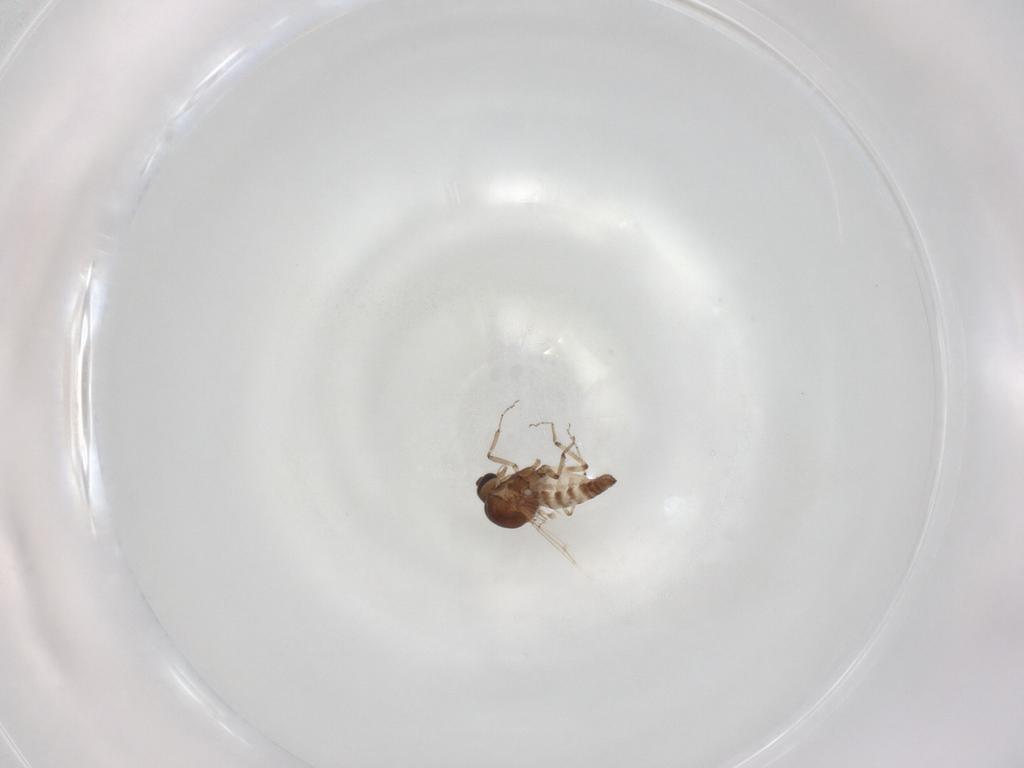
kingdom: Animalia
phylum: Arthropoda
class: Insecta
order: Diptera
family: Ceratopogonidae
